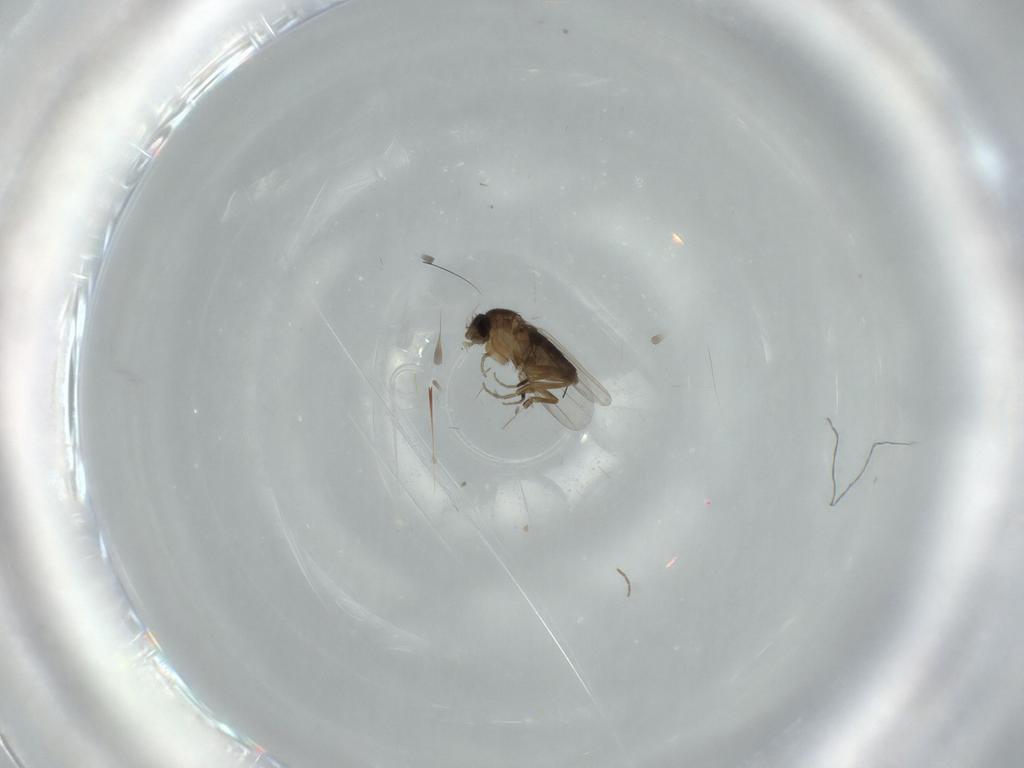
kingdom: Animalia
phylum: Arthropoda
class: Insecta
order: Diptera
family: Phoridae
